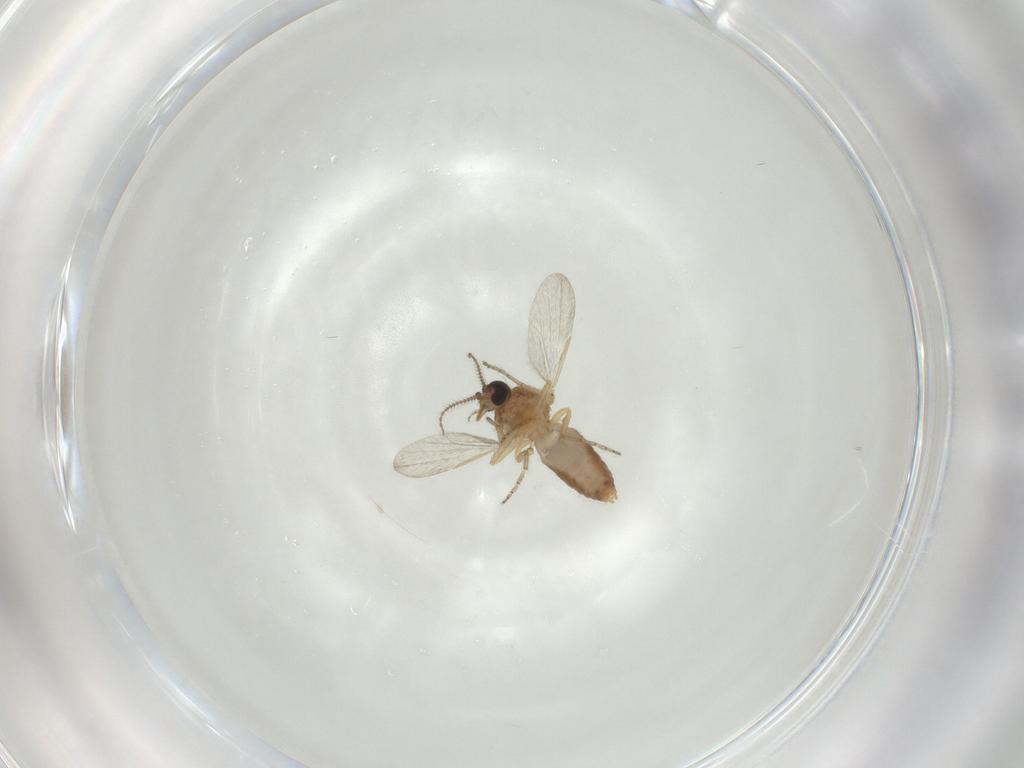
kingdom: Animalia
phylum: Arthropoda
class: Insecta
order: Diptera
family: Ceratopogonidae
